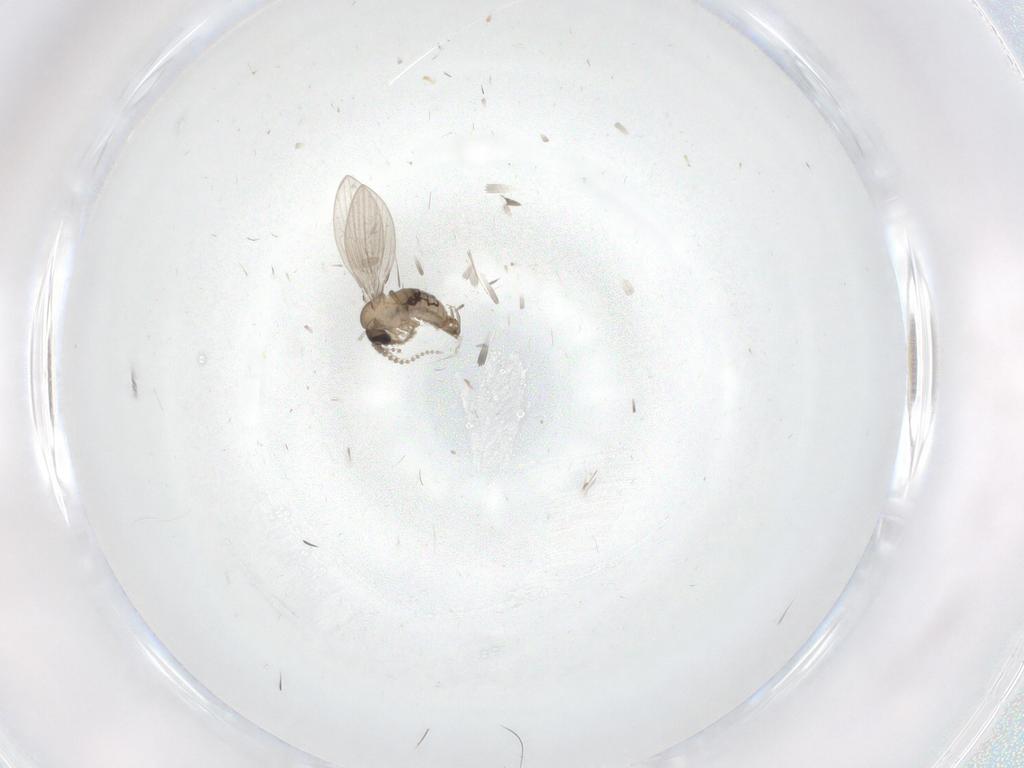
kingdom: Animalia
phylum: Arthropoda
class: Insecta
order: Diptera
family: Psychodidae
